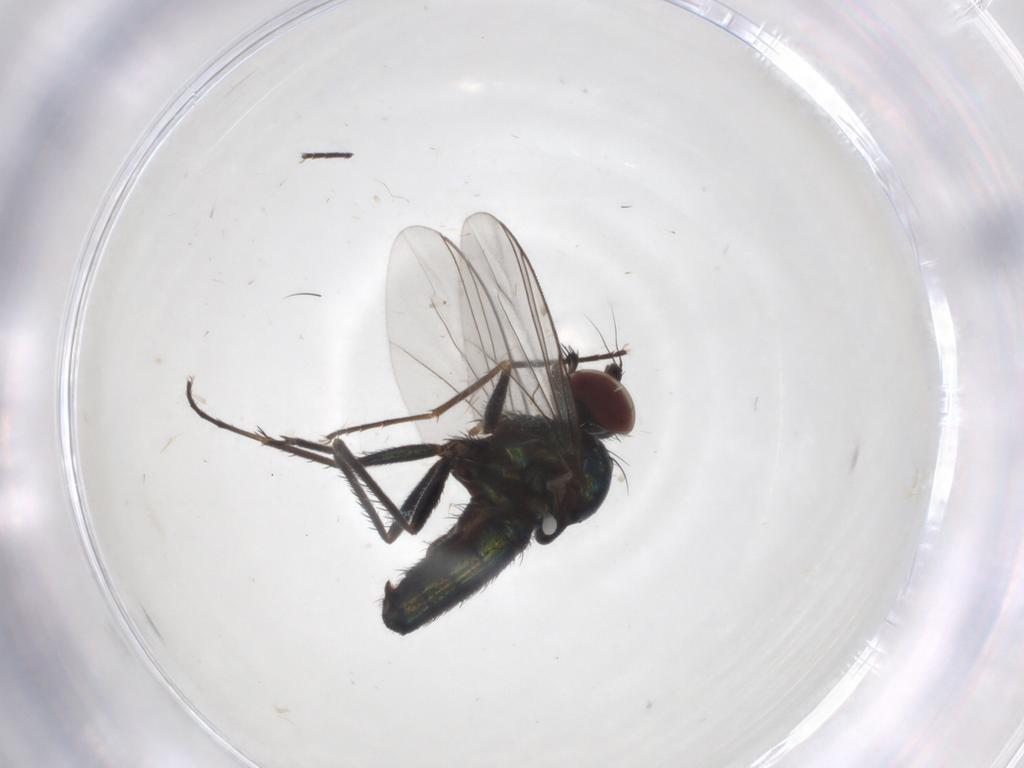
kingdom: Animalia
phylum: Arthropoda
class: Insecta
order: Diptera
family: Dolichopodidae
